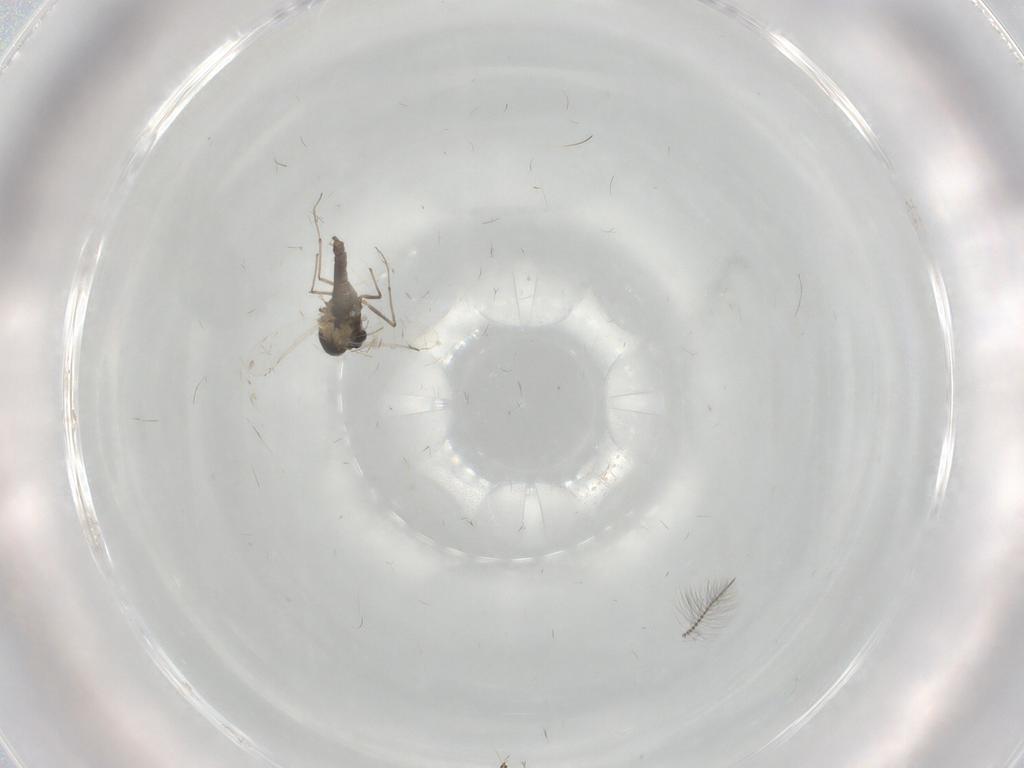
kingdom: Animalia
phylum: Arthropoda
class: Insecta
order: Diptera
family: Chironomidae
